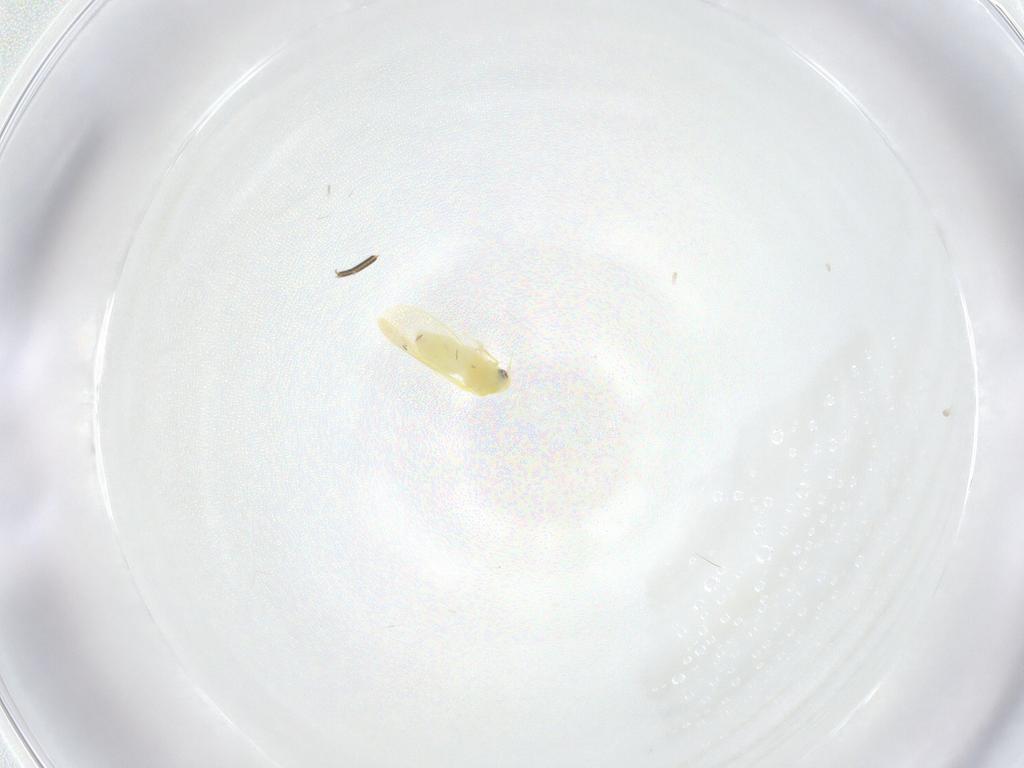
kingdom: Animalia
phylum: Arthropoda
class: Insecta
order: Hemiptera
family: Aleyrodidae
